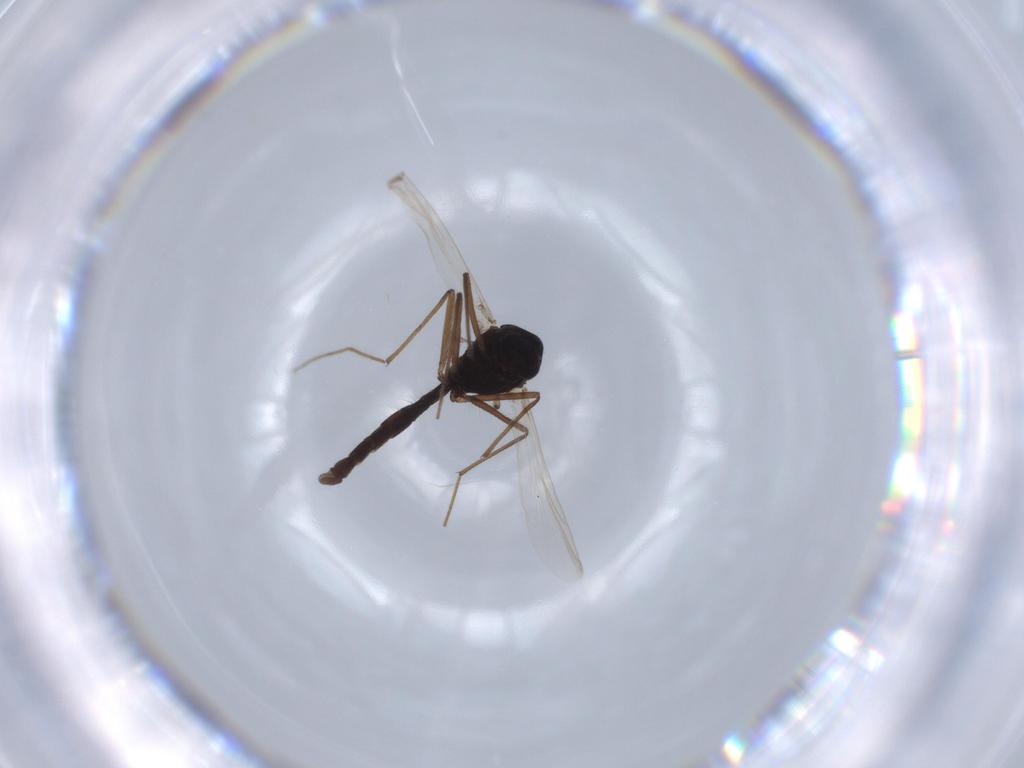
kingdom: Animalia
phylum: Arthropoda
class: Insecta
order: Diptera
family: Chironomidae
